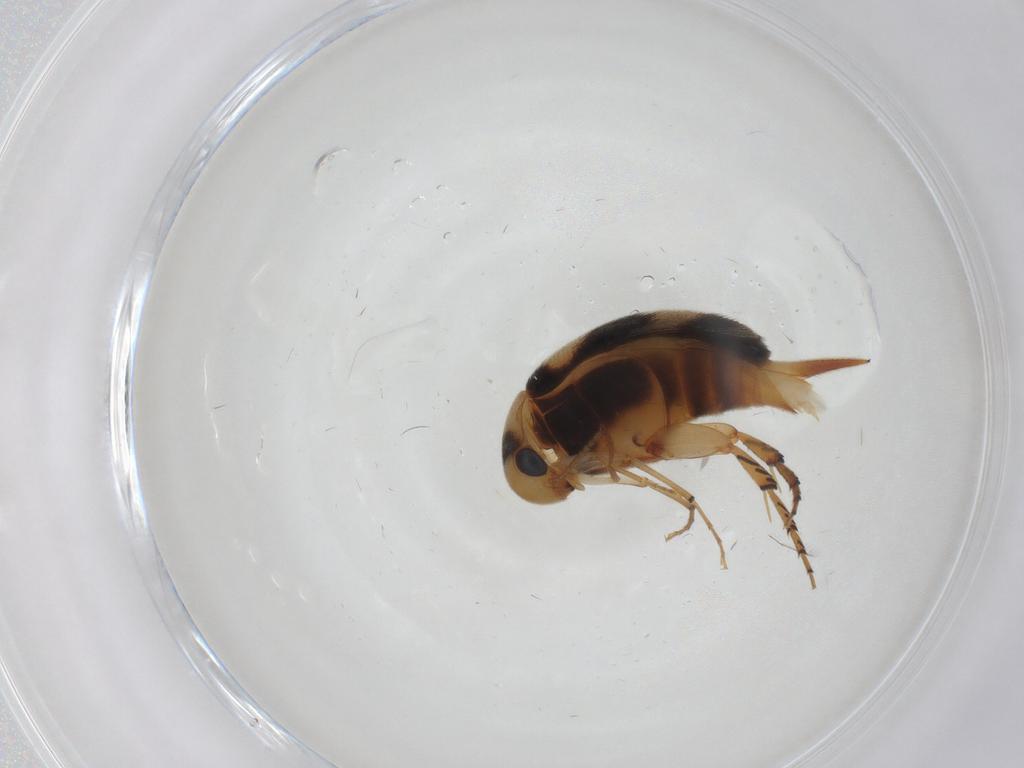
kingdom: Animalia
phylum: Arthropoda
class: Insecta
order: Coleoptera
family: Mordellidae
